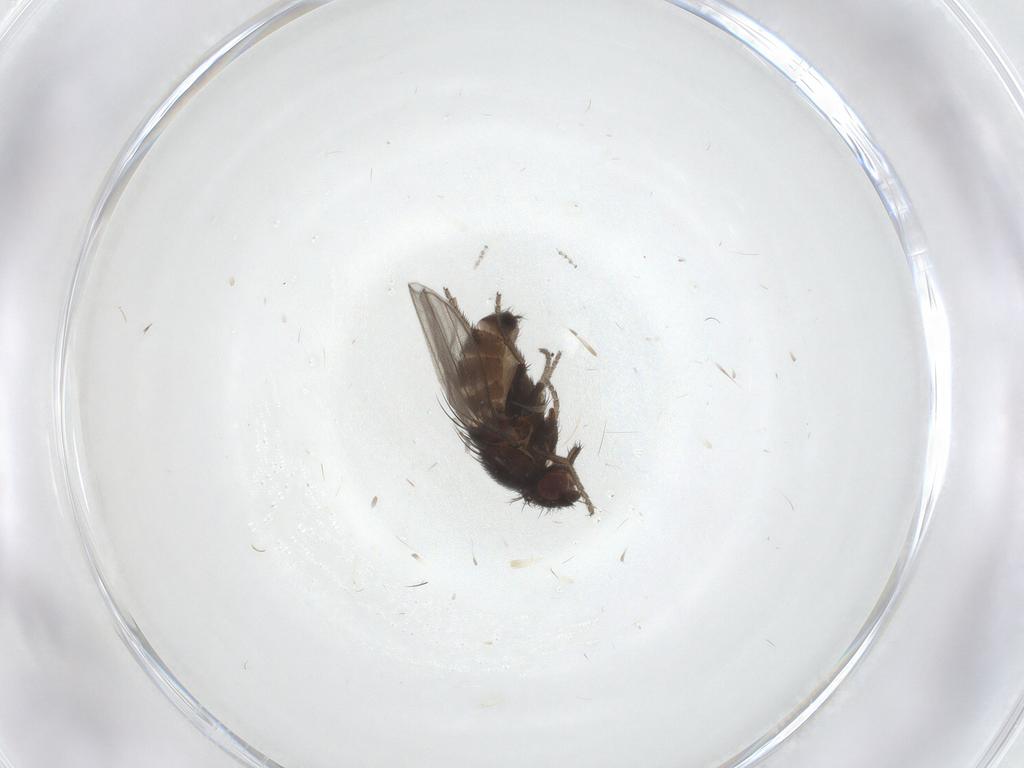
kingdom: Animalia
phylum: Arthropoda
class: Insecta
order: Diptera
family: Milichiidae
